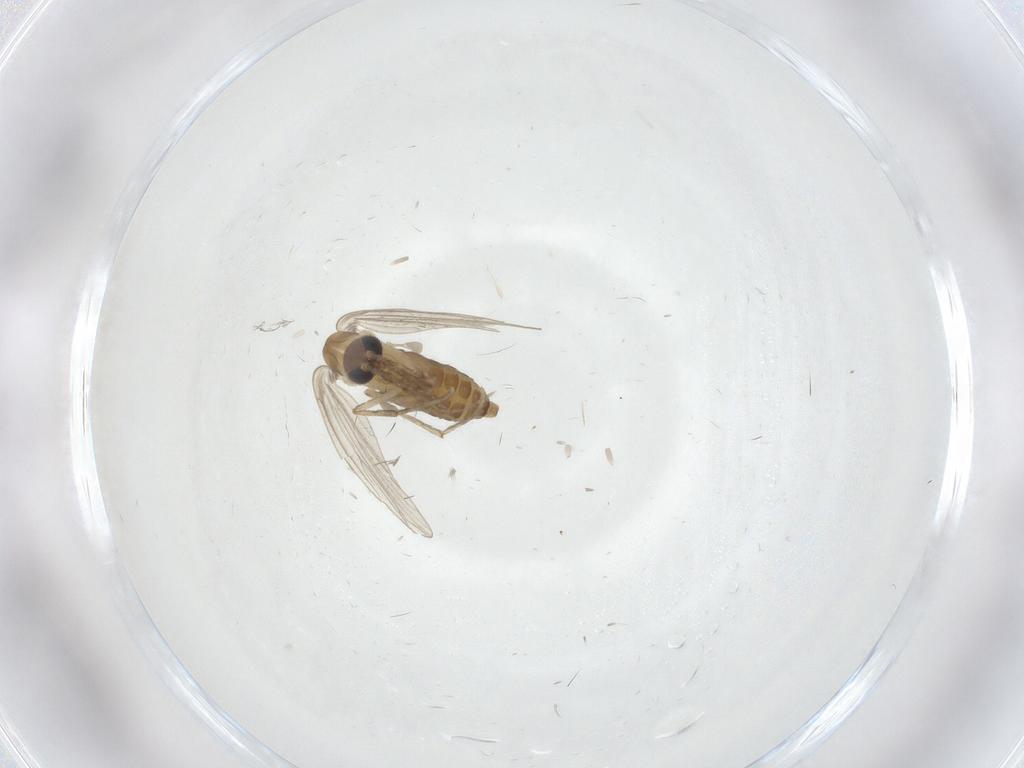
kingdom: Animalia
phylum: Arthropoda
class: Insecta
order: Diptera
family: Psychodidae
